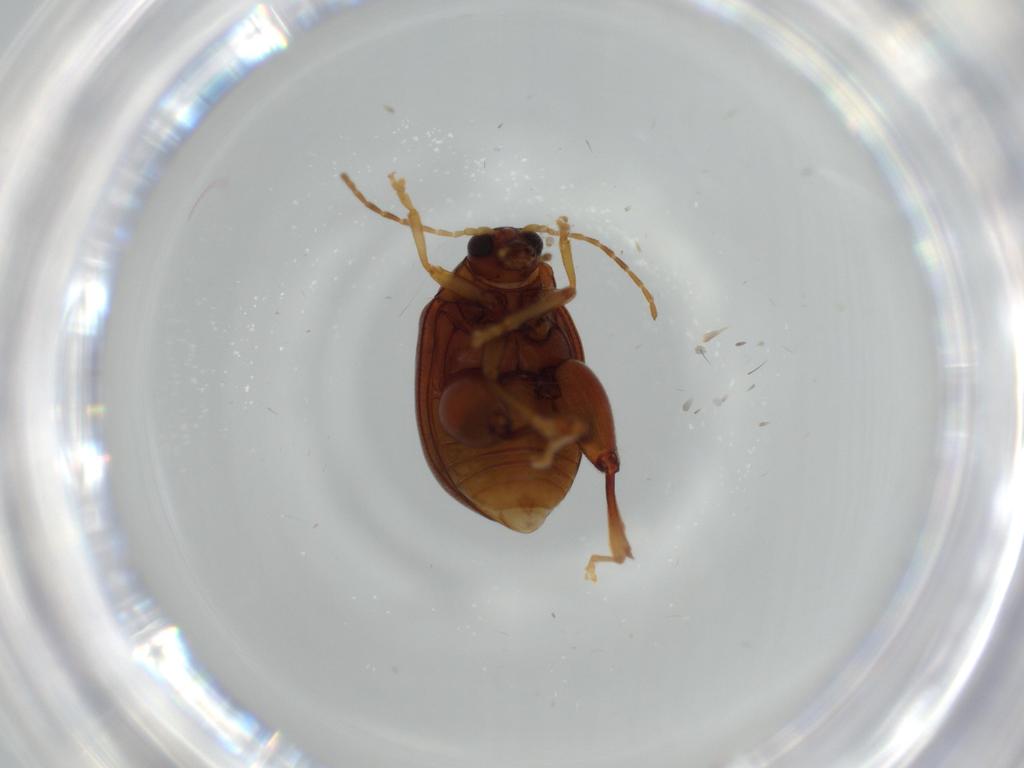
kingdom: Animalia
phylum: Arthropoda
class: Insecta
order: Coleoptera
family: Chrysomelidae
